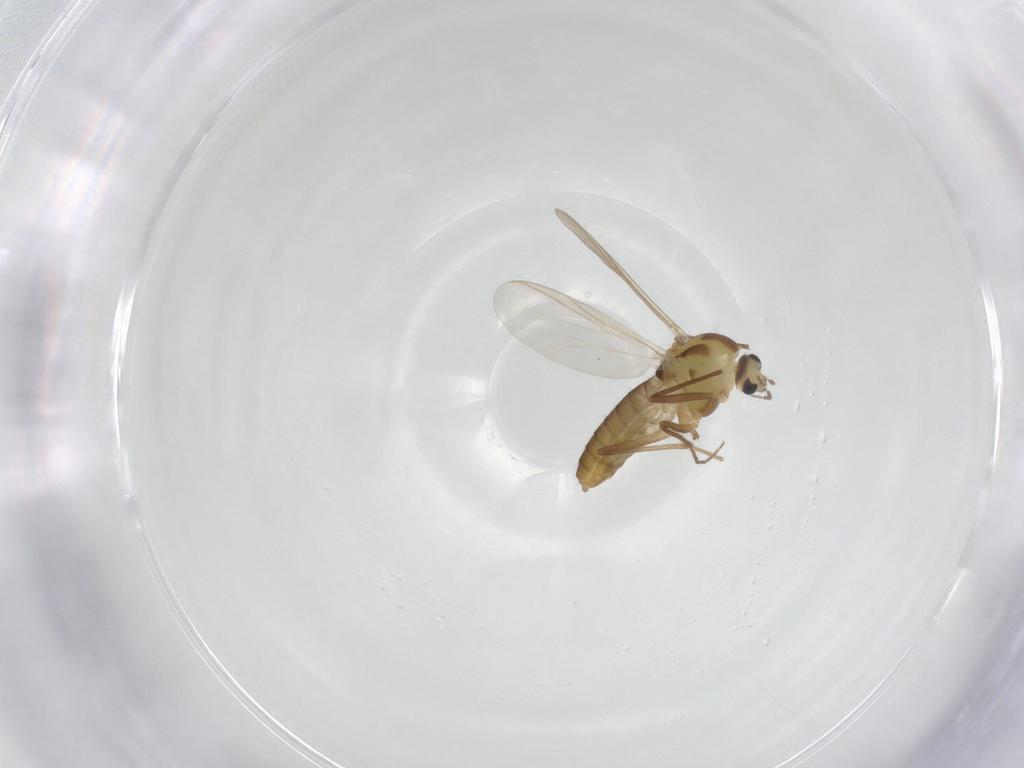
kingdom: Animalia
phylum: Arthropoda
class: Insecta
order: Diptera
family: Chironomidae
